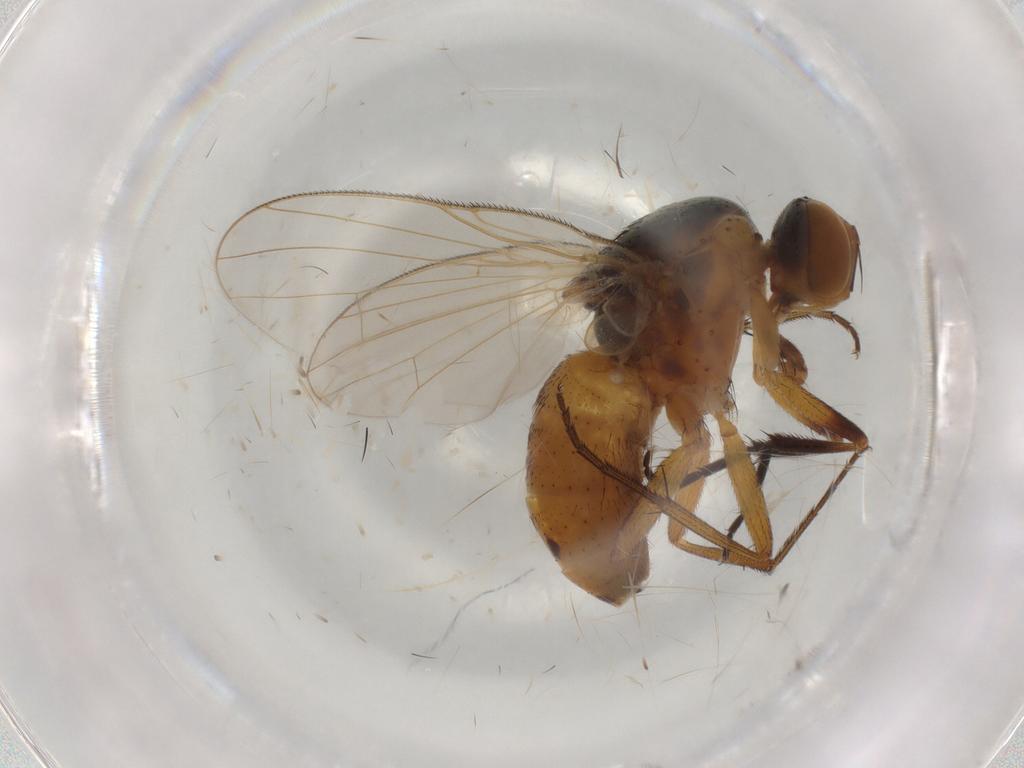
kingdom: Animalia
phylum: Arthropoda
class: Insecta
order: Diptera
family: Muscidae
